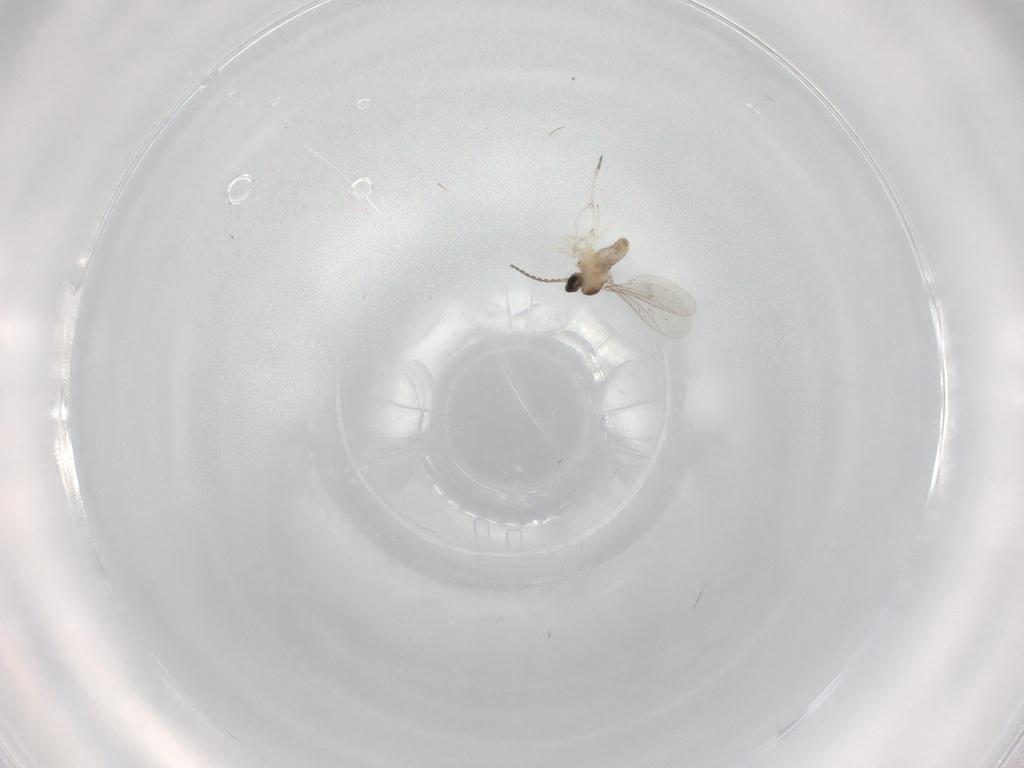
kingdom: Animalia
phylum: Arthropoda
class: Insecta
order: Diptera
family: Cecidomyiidae
